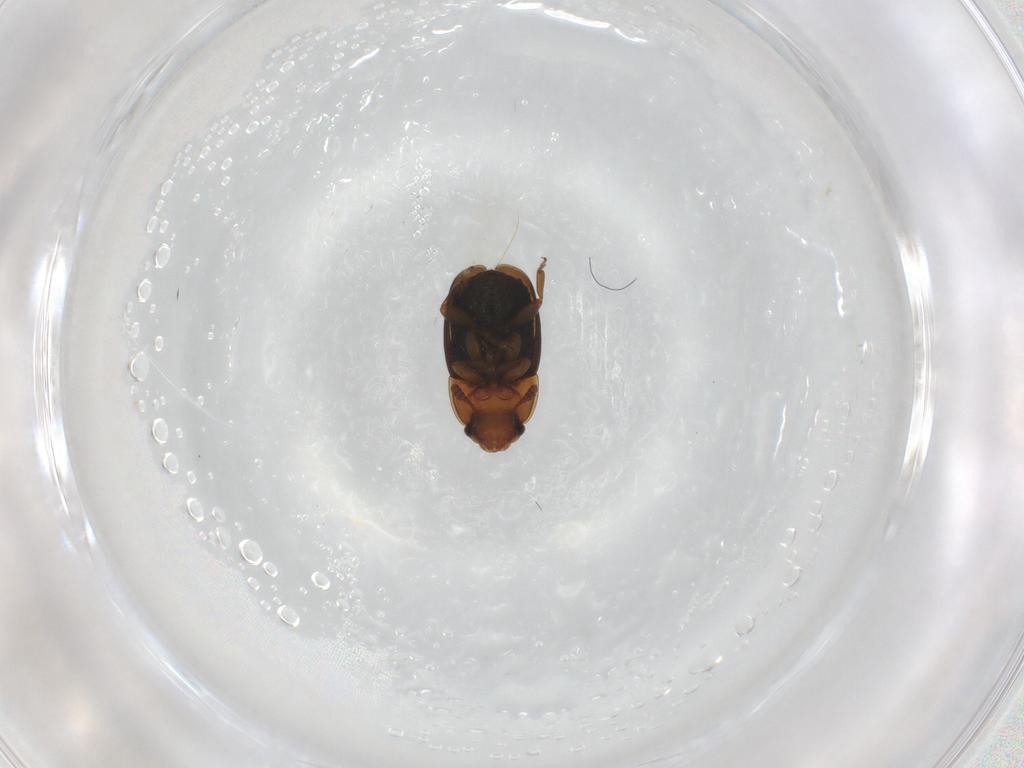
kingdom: Animalia
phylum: Arthropoda
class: Insecta
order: Coleoptera
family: Nitidulidae
